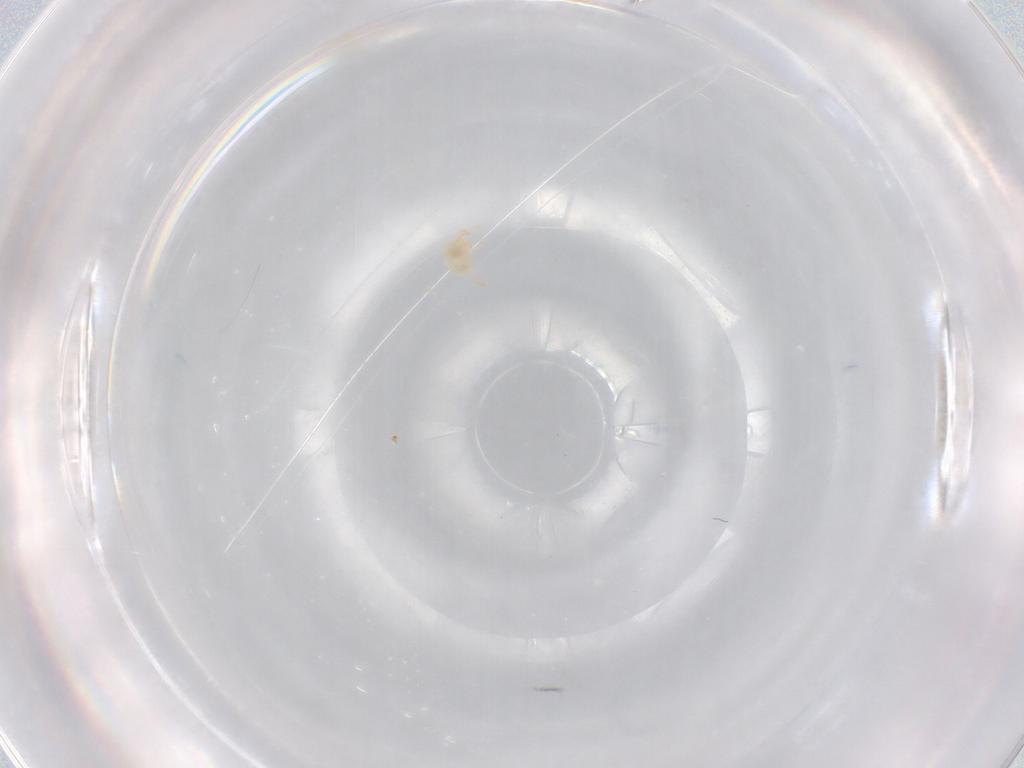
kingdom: Animalia
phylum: Arthropoda
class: Arachnida
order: Trombidiformes
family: Sperchontidae
